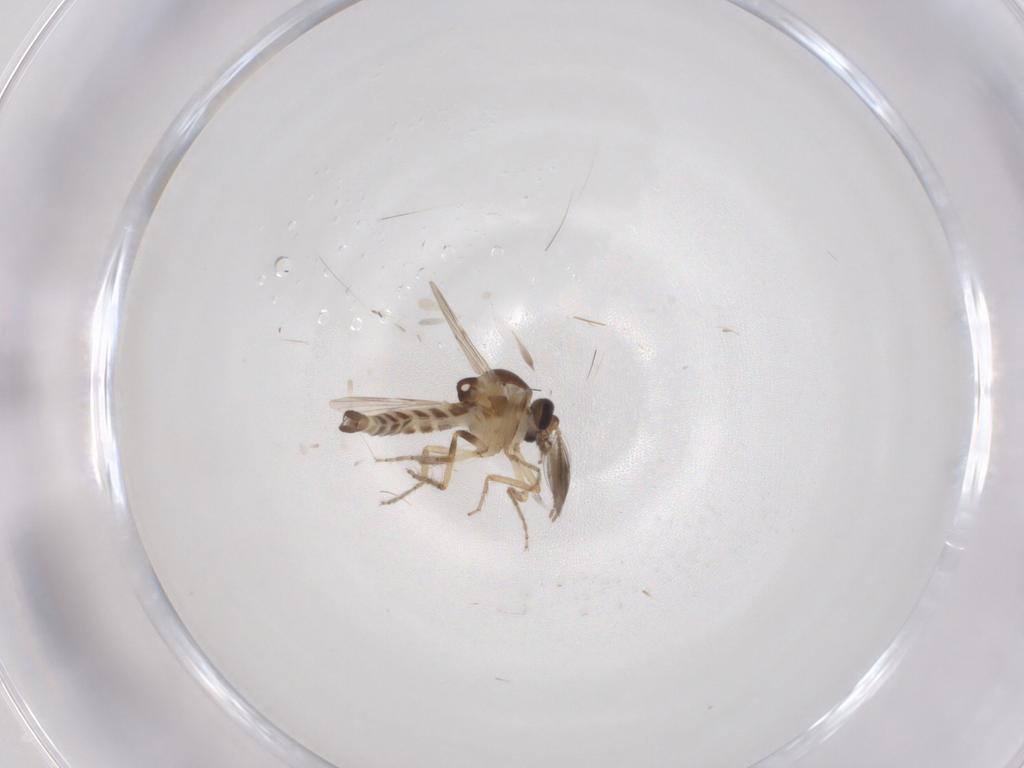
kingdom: Animalia
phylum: Arthropoda
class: Insecta
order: Diptera
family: Ceratopogonidae
